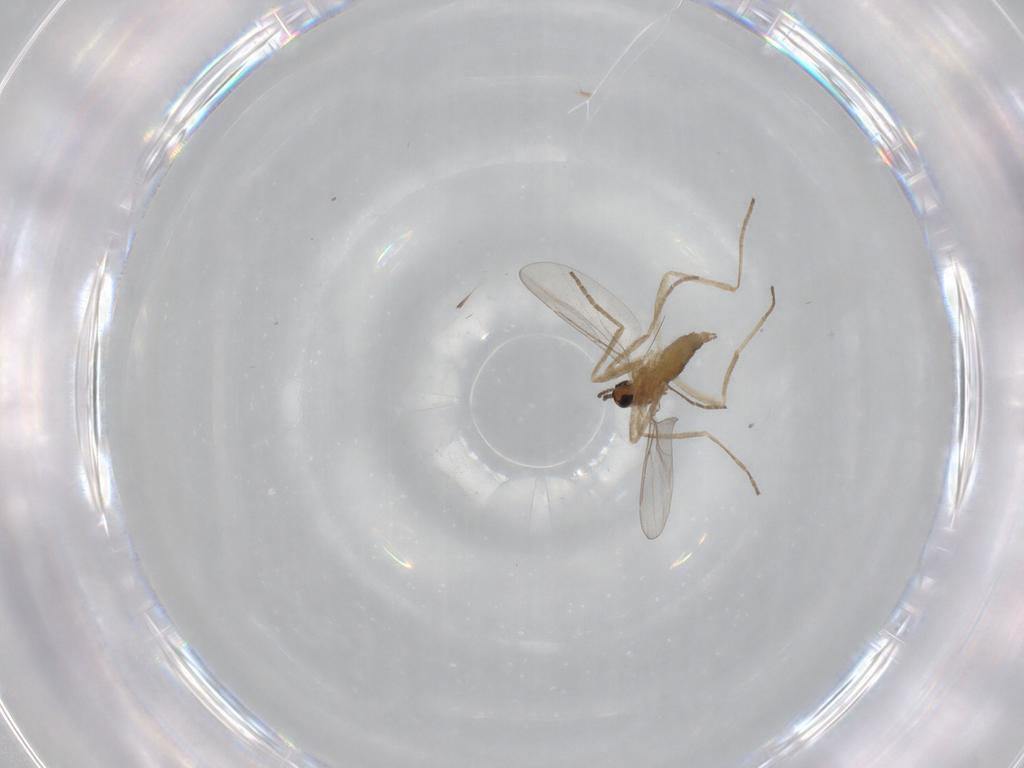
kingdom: Animalia
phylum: Arthropoda
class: Insecta
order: Diptera
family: Cecidomyiidae
